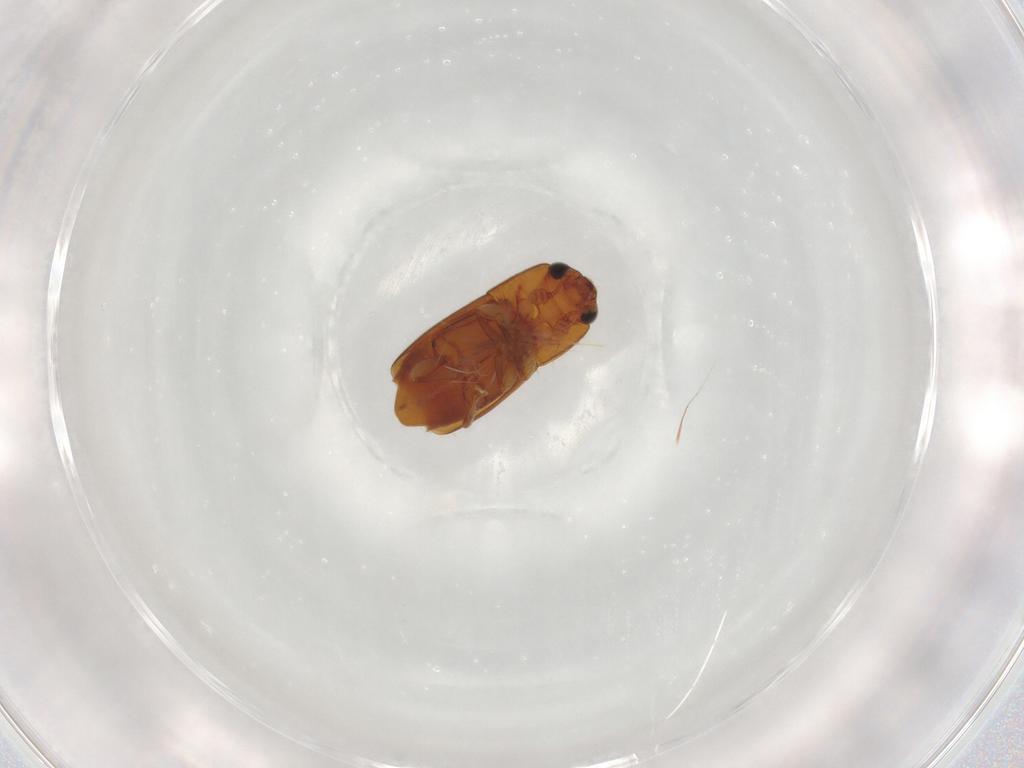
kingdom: Animalia
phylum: Arthropoda
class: Insecta
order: Coleoptera
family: Nitidulidae
